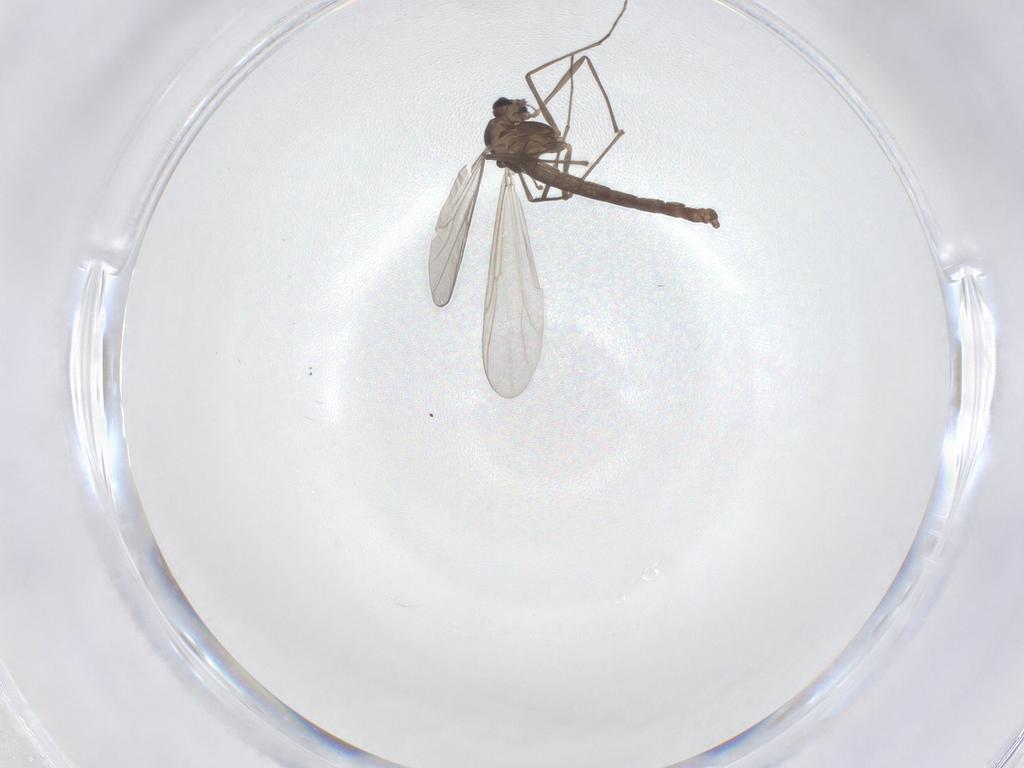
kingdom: Animalia
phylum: Arthropoda
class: Insecta
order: Diptera
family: Chironomidae
